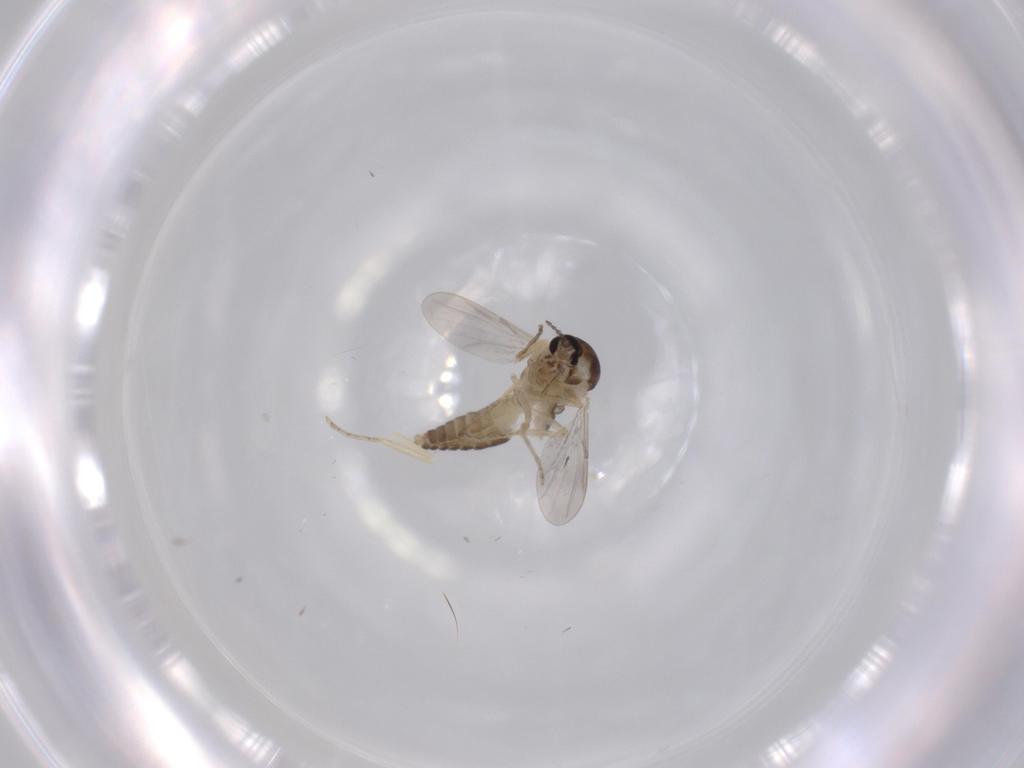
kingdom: Animalia
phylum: Arthropoda
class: Insecta
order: Diptera
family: Ceratopogonidae
